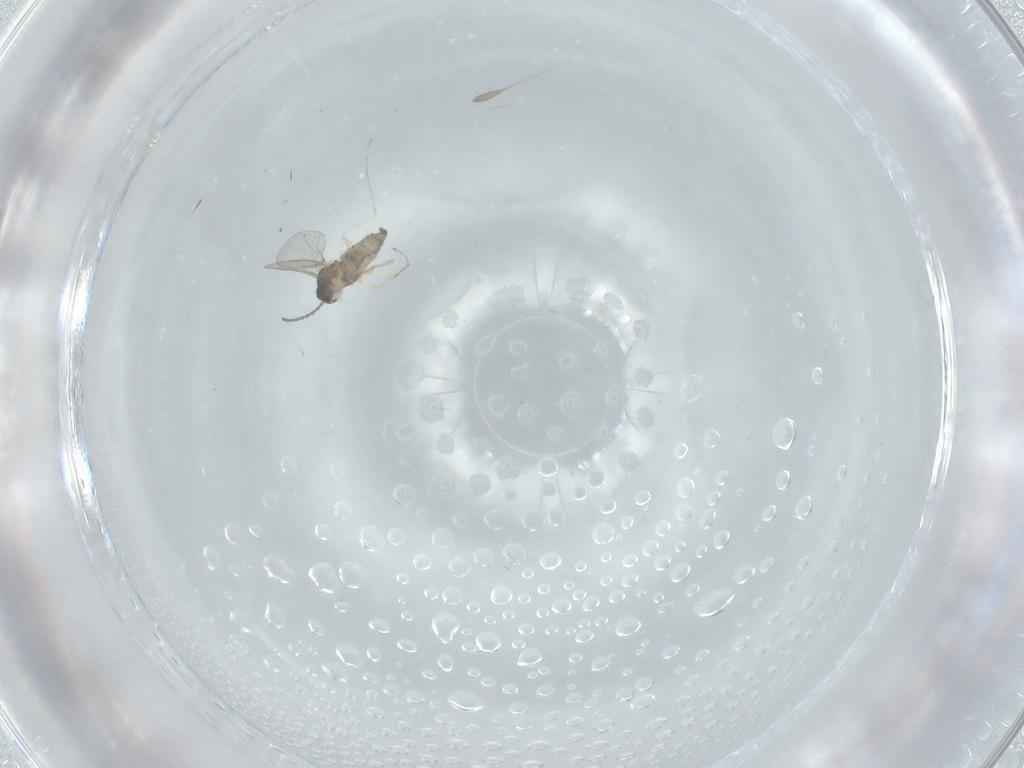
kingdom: Animalia
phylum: Arthropoda
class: Insecta
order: Diptera
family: Cecidomyiidae
